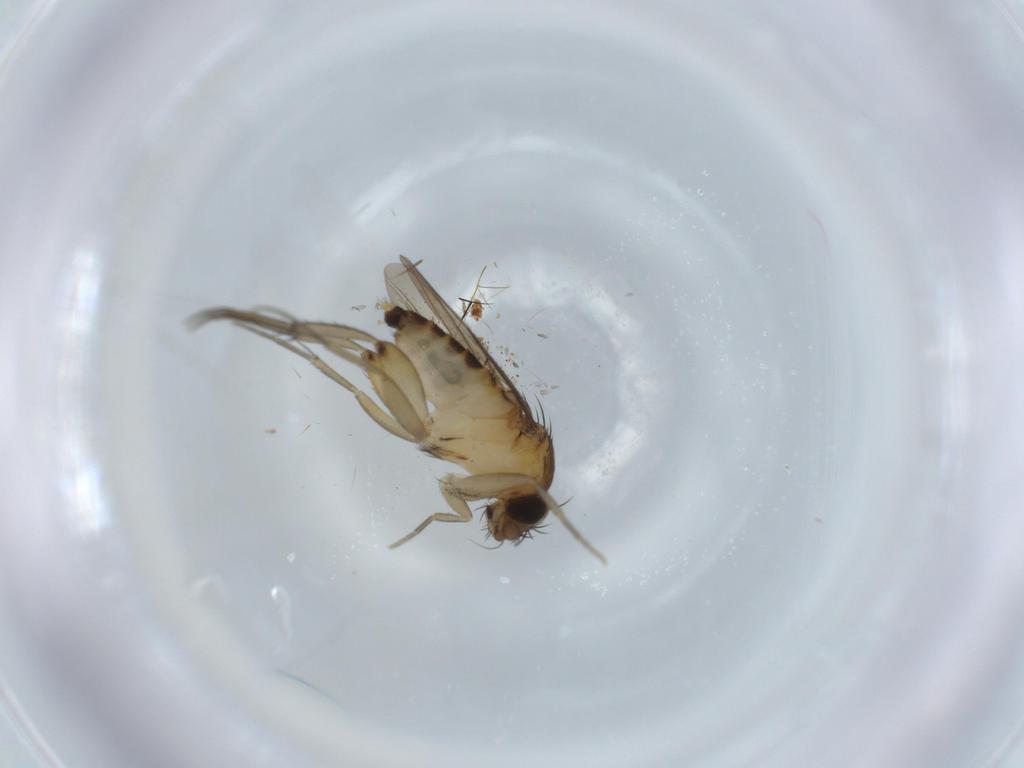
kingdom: Animalia
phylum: Arthropoda
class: Insecta
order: Diptera
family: Phoridae
